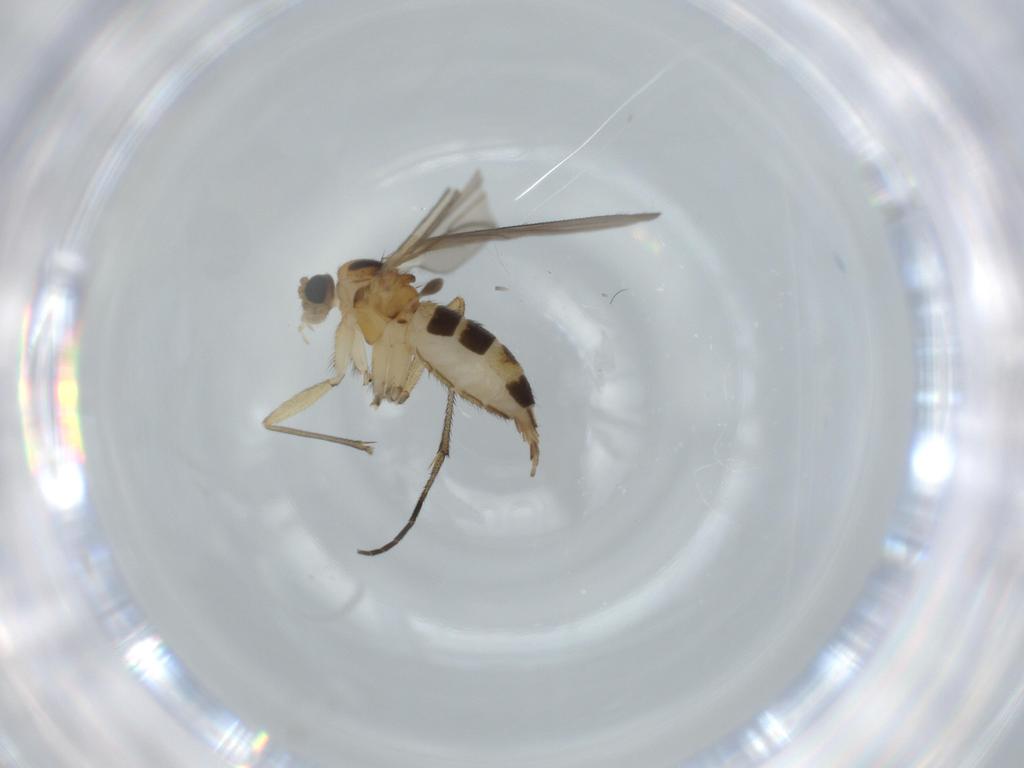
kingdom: Animalia
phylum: Arthropoda
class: Insecta
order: Diptera
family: Sciaridae
